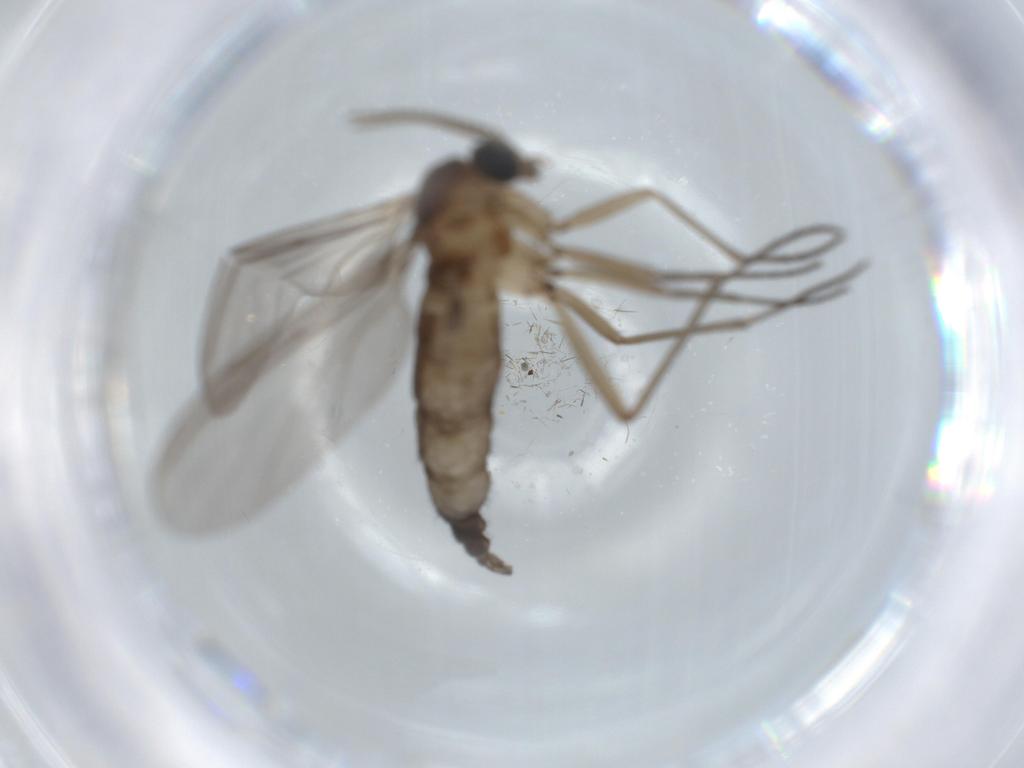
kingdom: Animalia
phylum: Arthropoda
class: Insecta
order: Diptera
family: Sciaridae
